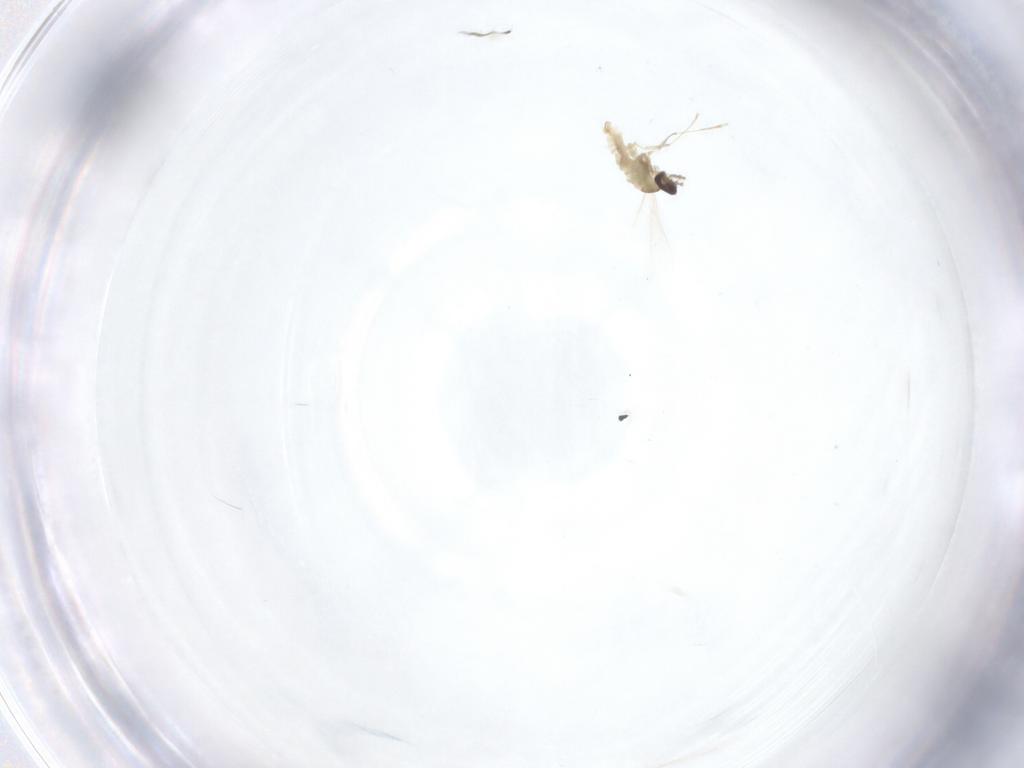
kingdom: Animalia
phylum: Arthropoda
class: Insecta
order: Diptera
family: Cecidomyiidae
